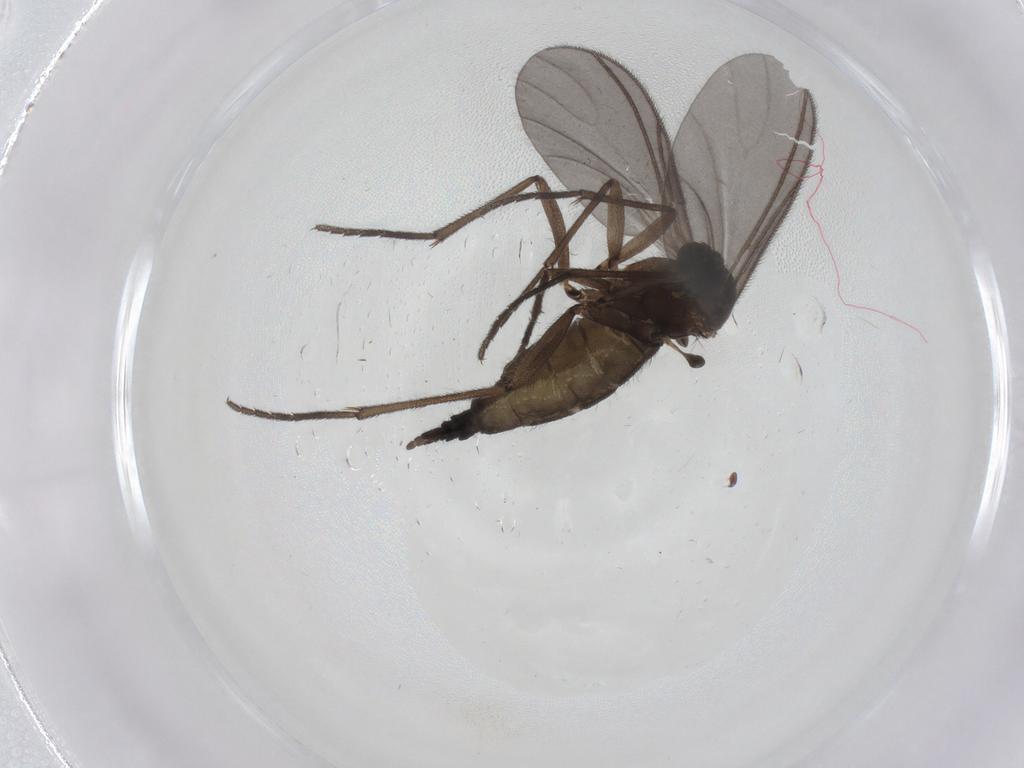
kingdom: Animalia
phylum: Arthropoda
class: Insecta
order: Diptera
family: Sciaridae
